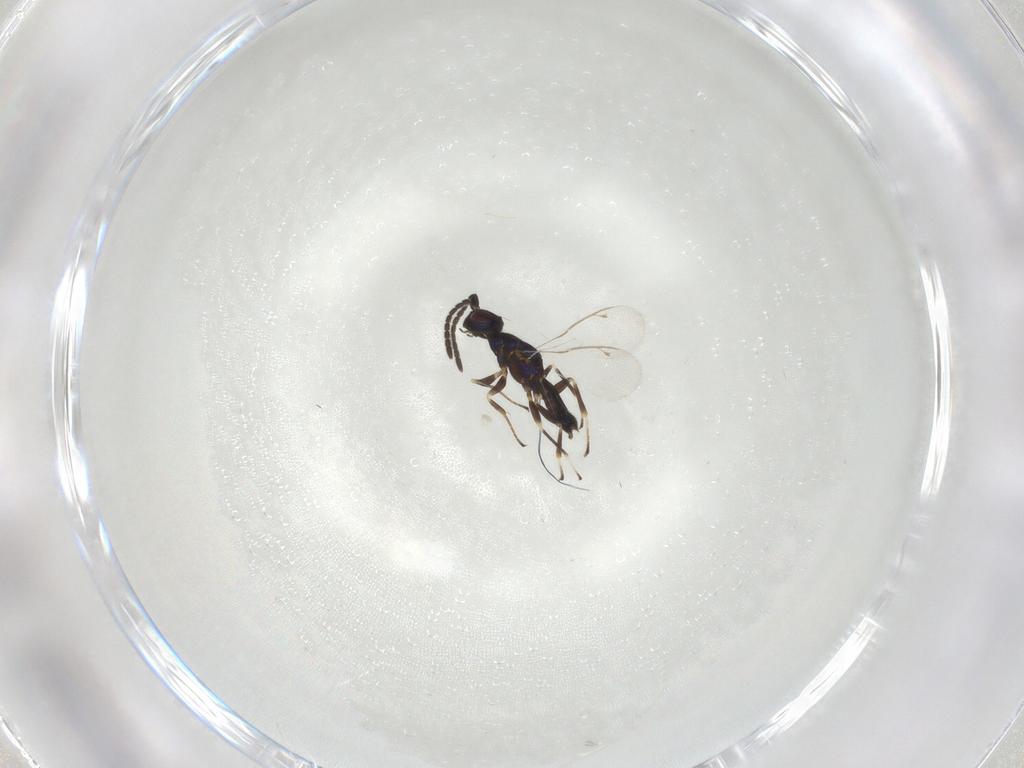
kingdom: Animalia
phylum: Arthropoda
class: Insecta
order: Hymenoptera
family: Eupelmidae
